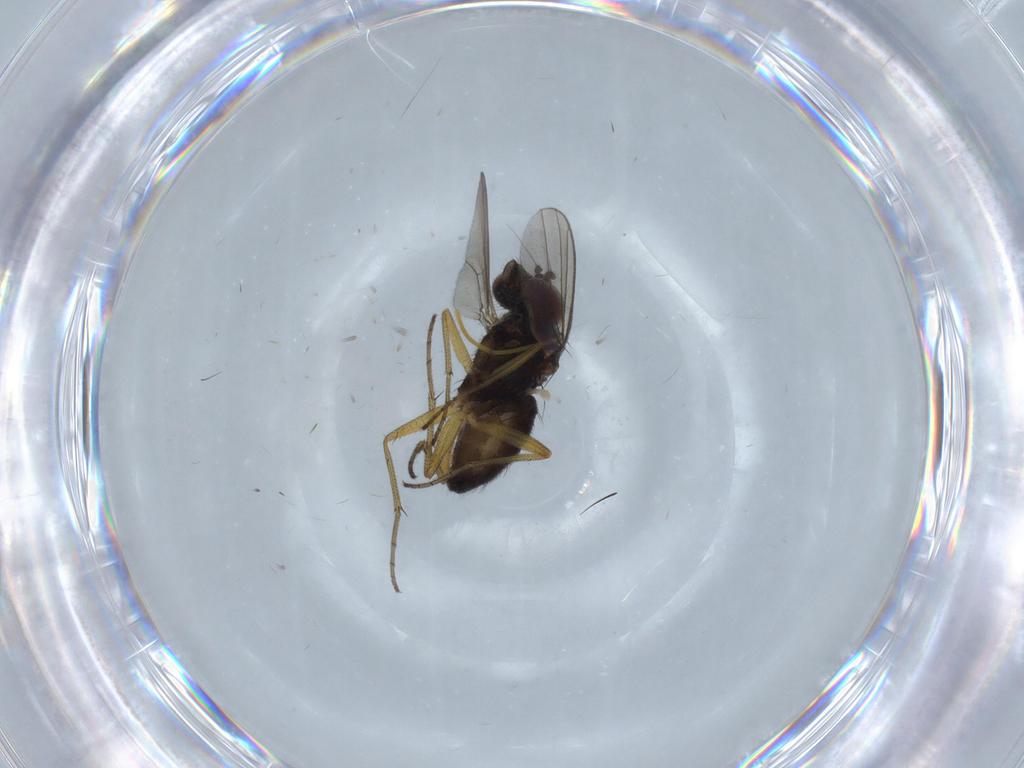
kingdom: Animalia
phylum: Arthropoda
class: Insecta
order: Diptera
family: Dolichopodidae
